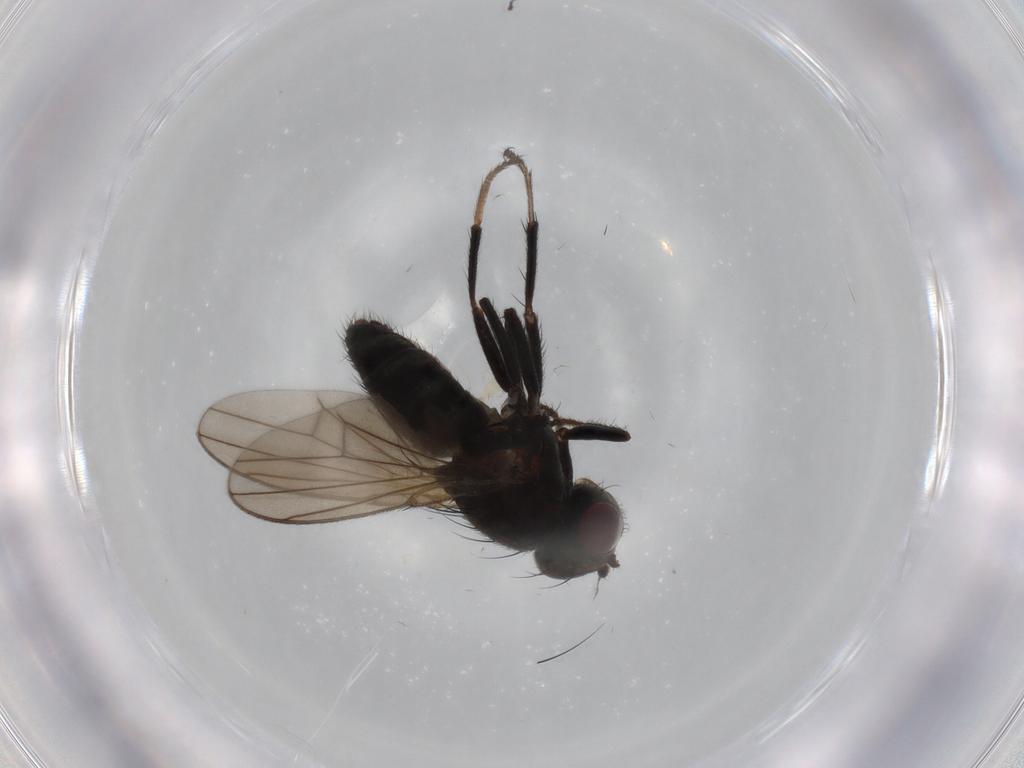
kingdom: Animalia
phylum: Arthropoda
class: Insecta
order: Diptera
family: Ephydridae
